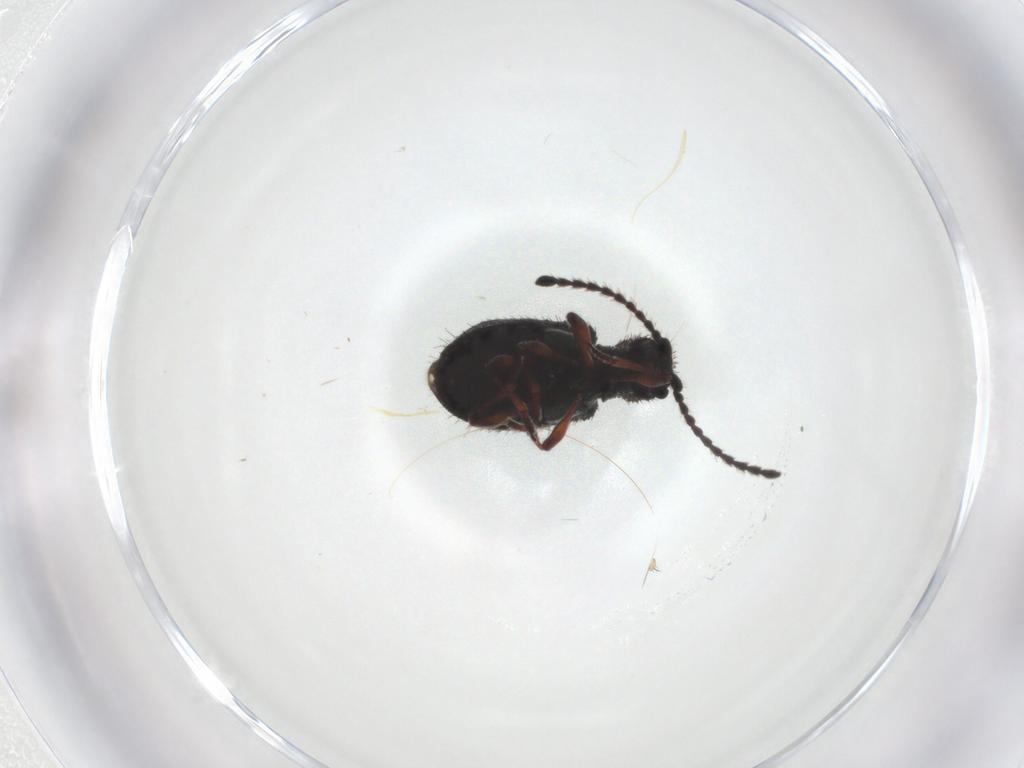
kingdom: Animalia
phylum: Arthropoda
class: Insecta
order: Coleoptera
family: Ptinidae
